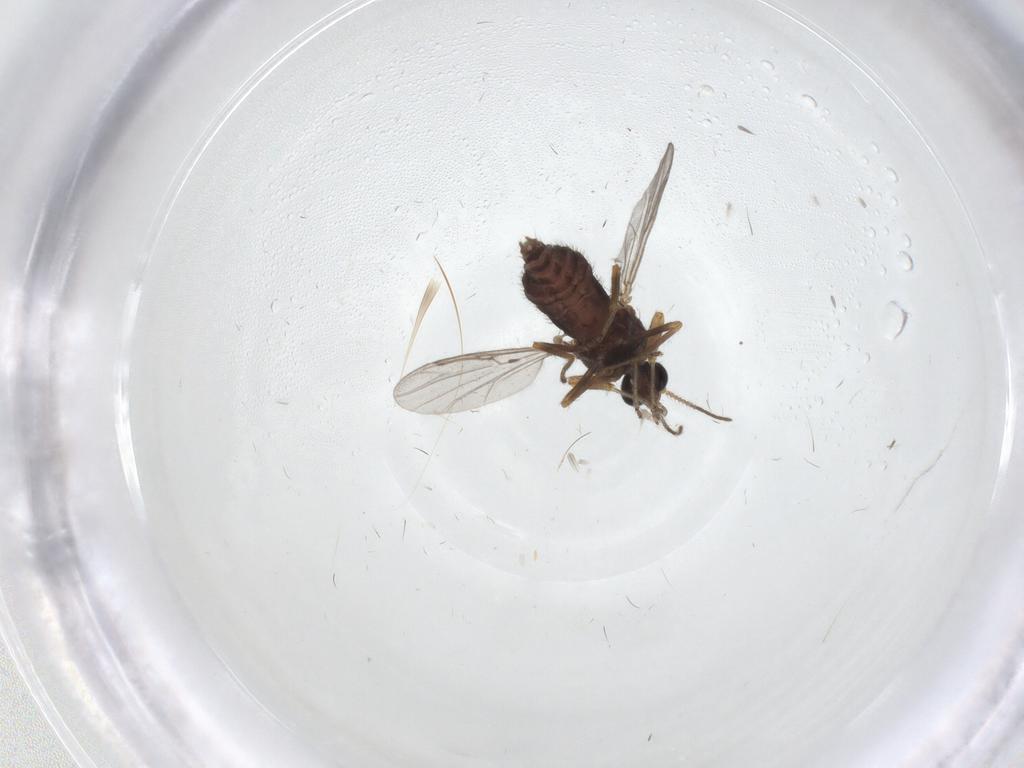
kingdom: Animalia
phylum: Arthropoda
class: Insecta
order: Diptera
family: Ceratopogonidae
